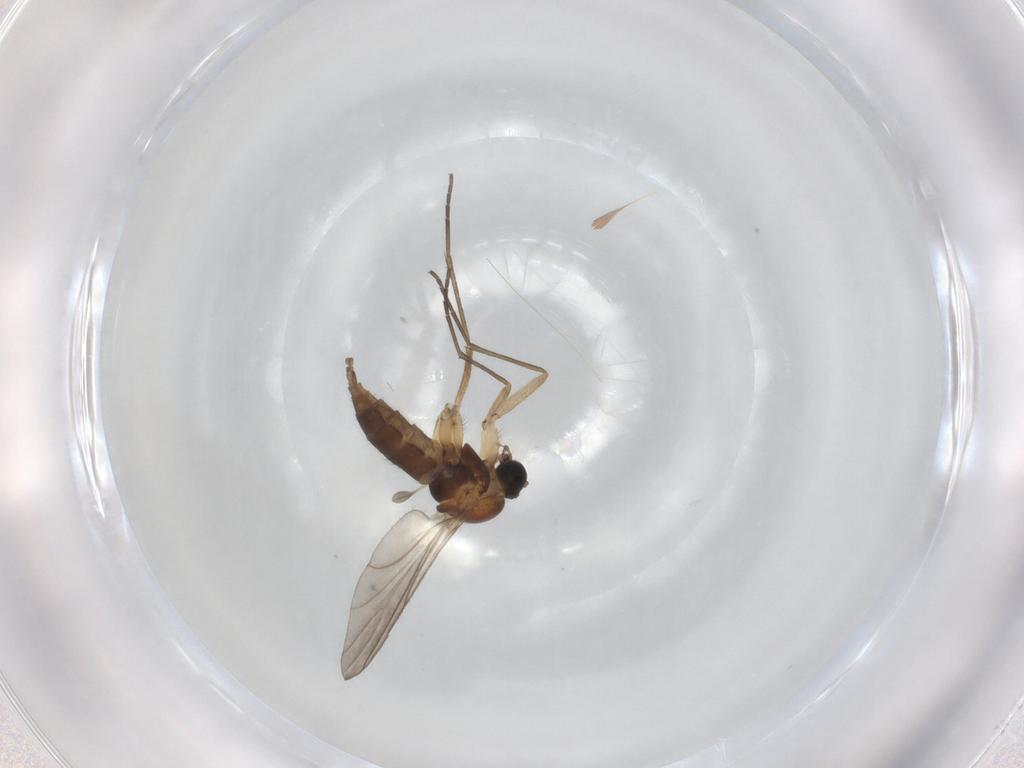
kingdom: Animalia
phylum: Arthropoda
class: Insecta
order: Diptera
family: Sciaridae
